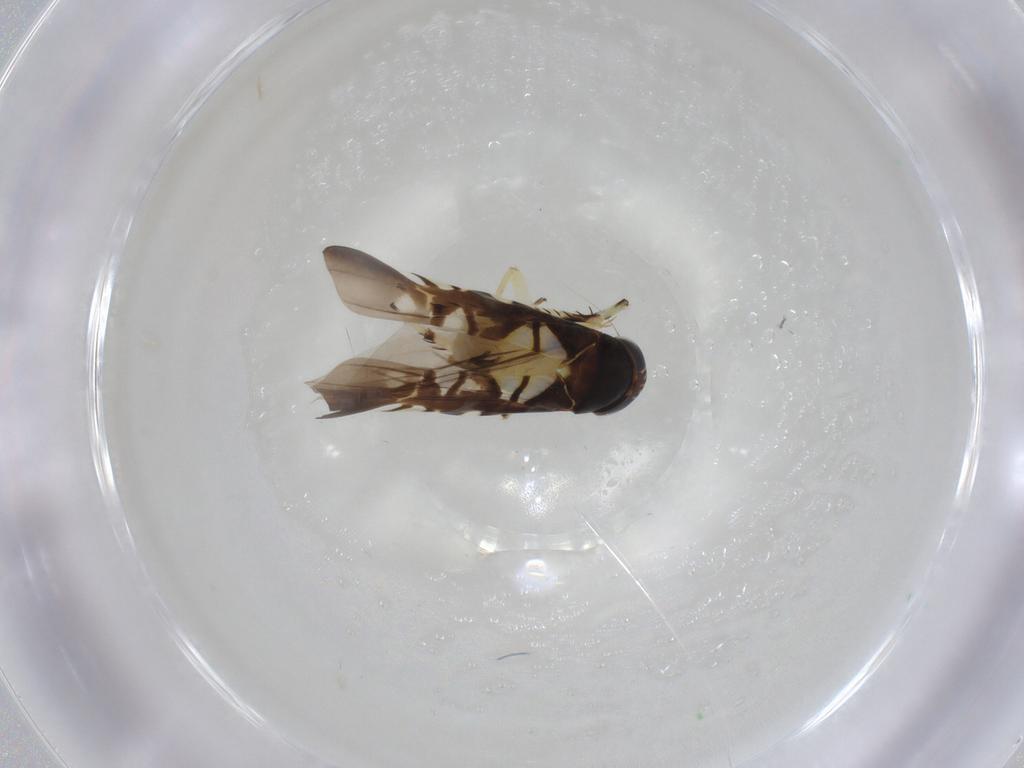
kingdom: Animalia
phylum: Arthropoda
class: Insecta
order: Hemiptera
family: Cicadellidae
